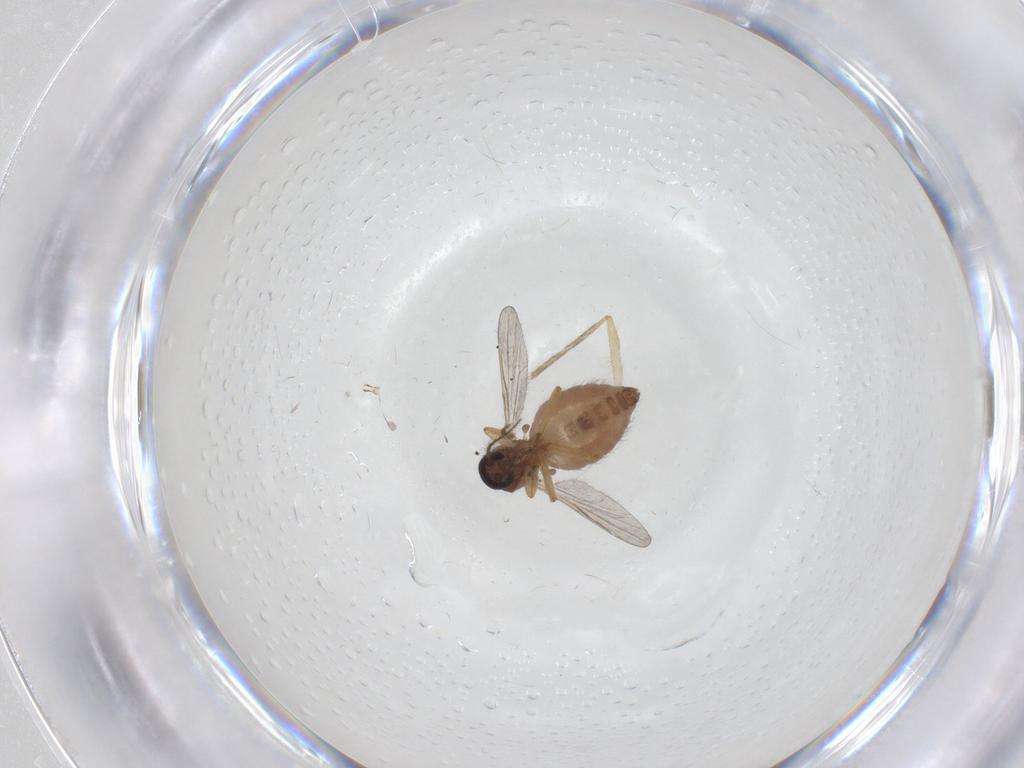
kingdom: Animalia
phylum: Arthropoda
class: Insecta
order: Diptera
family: Ceratopogonidae
